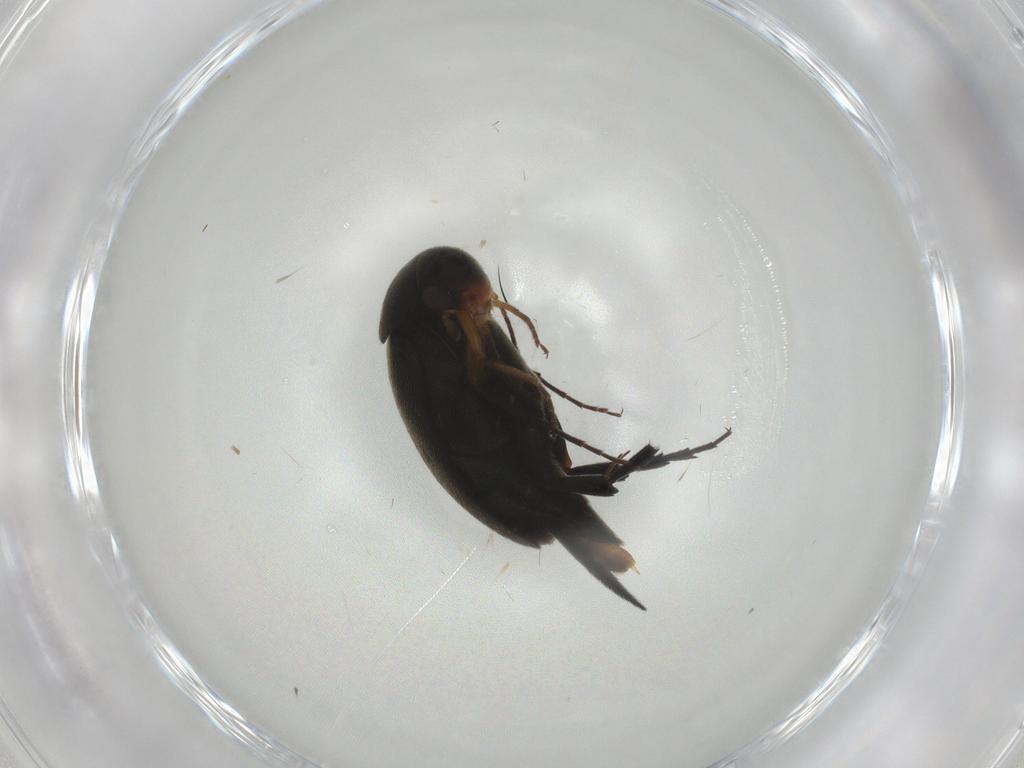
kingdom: Animalia
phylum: Arthropoda
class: Insecta
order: Coleoptera
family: Mordellidae
